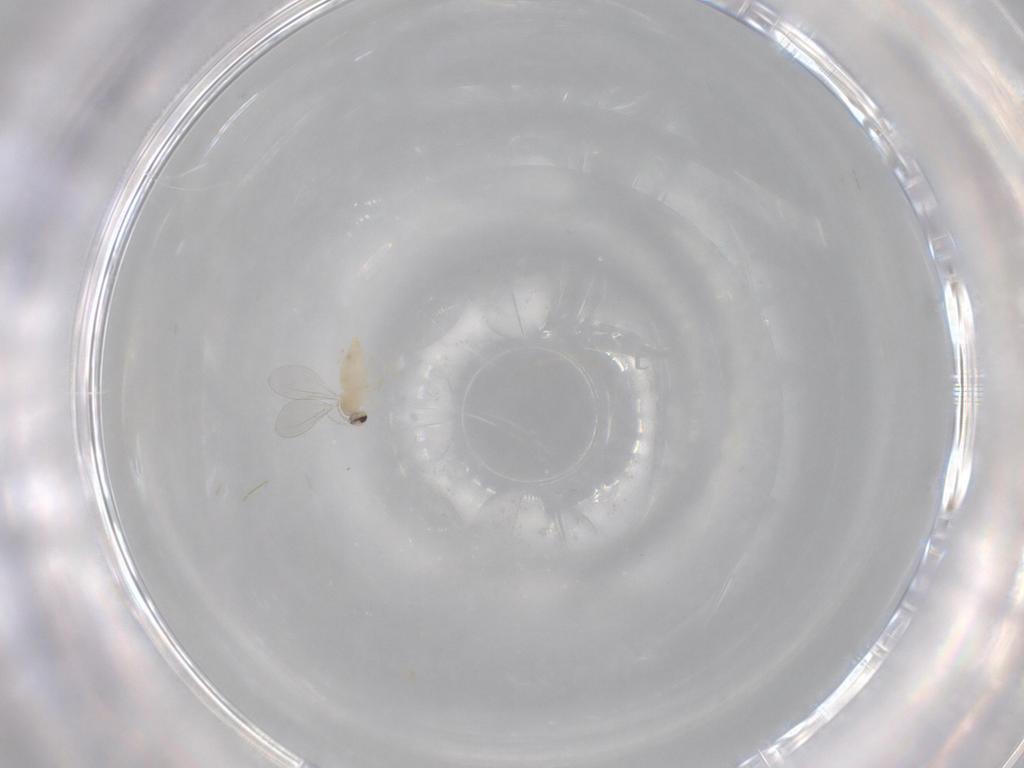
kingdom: Animalia
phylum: Arthropoda
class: Insecta
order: Diptera
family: Cecidomyiidae
